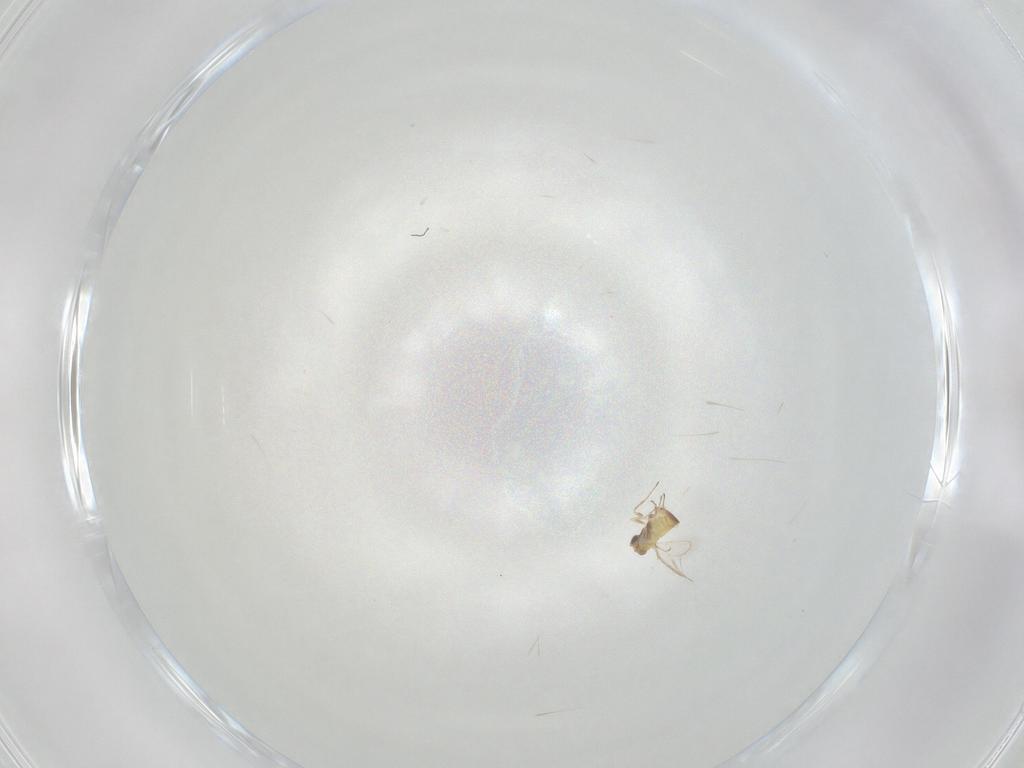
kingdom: Animalia
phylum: Arthropoda
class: Insecta
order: Hymenoptera
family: Trichogrammatidae
